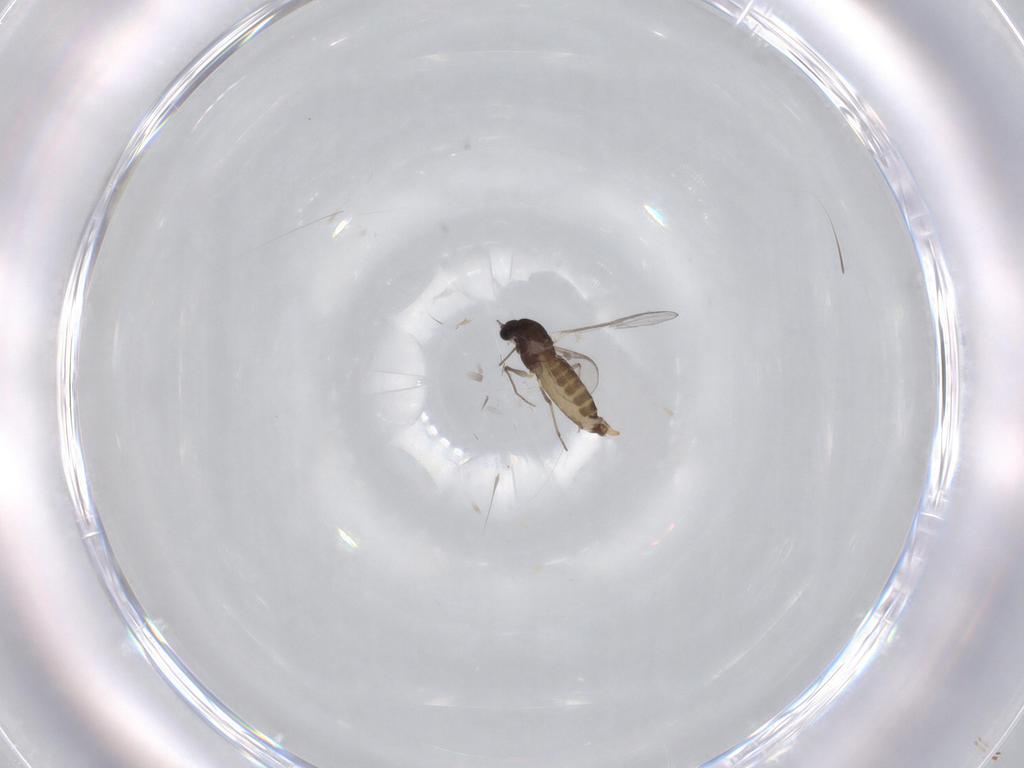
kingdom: Animalia
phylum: Arthropoda
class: Insecta
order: Diptera
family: Chironomidae
